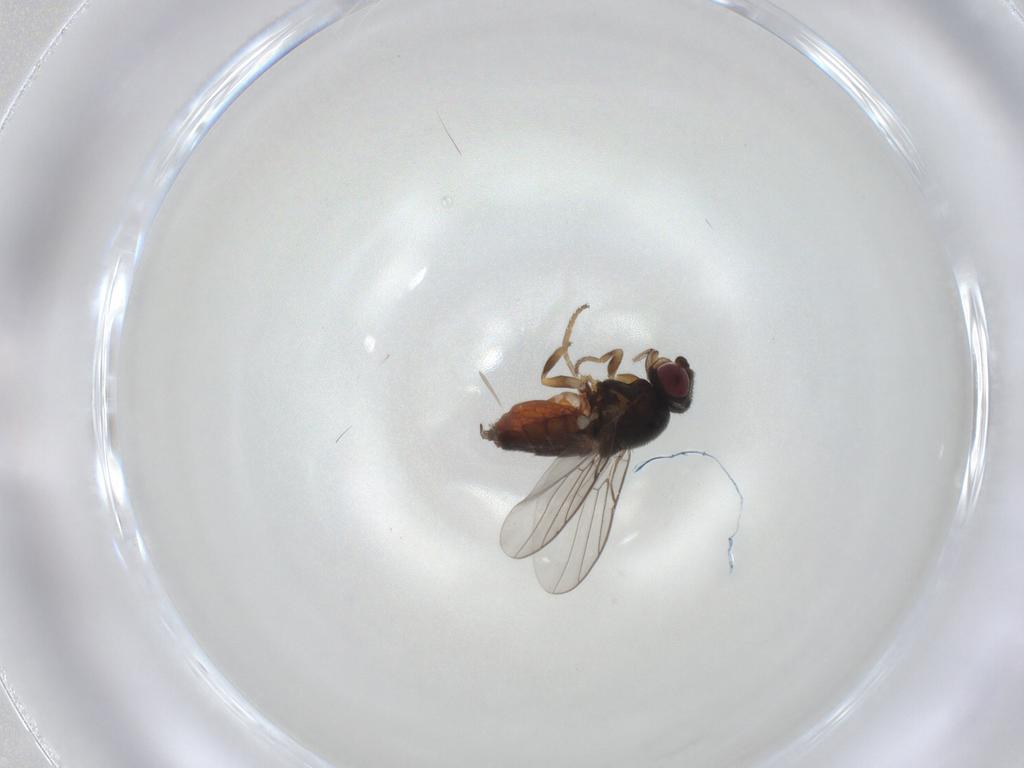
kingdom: Animalia
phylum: Arthropoda
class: Insecta
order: Diptera
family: Chloropidae
